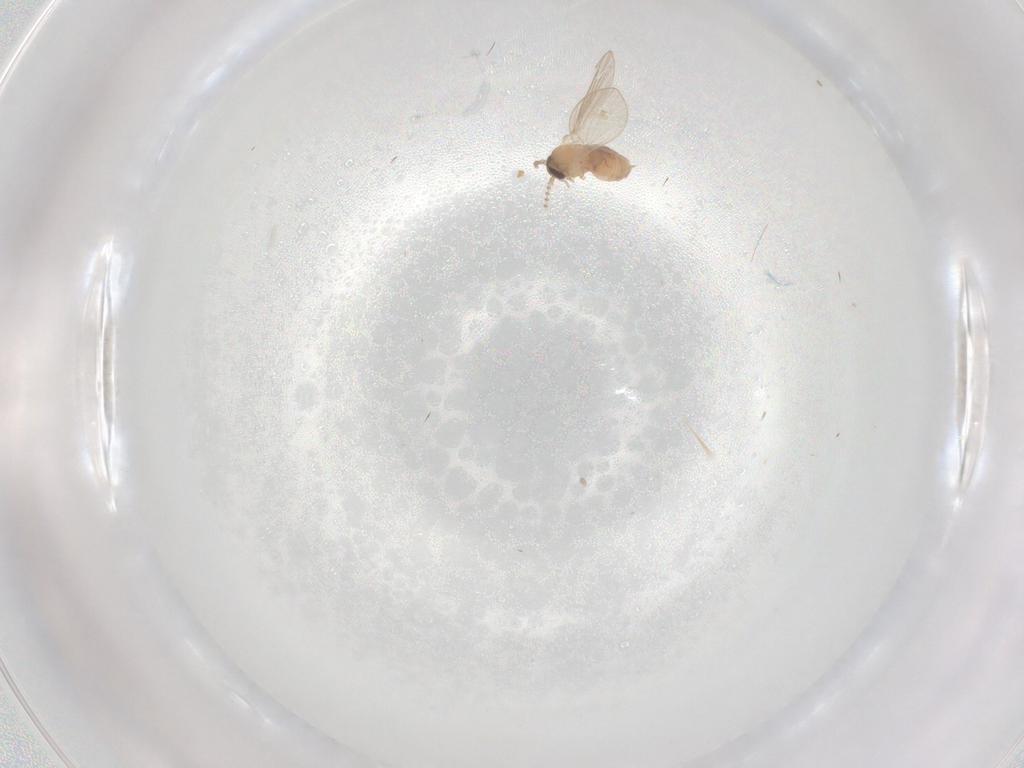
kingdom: Animalia
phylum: Arthropoda
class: Insecta
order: Diptera
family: Psychodidae
